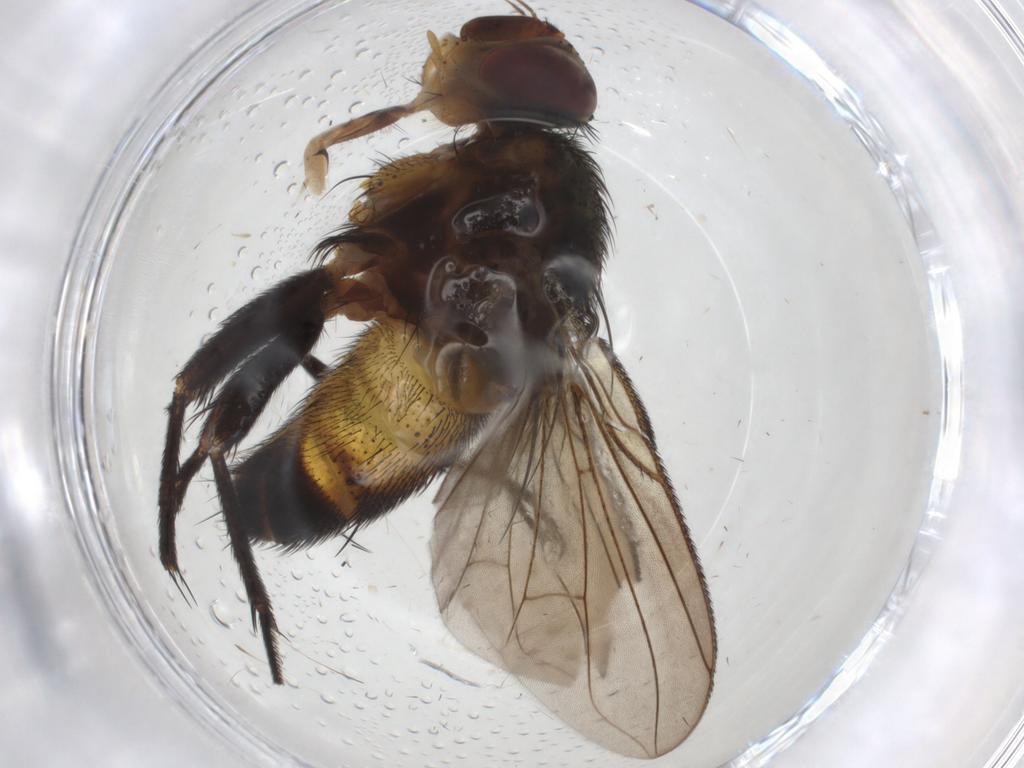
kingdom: Animalia
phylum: Arthropoda
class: Insecta
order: Diptera
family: Tachinidae
